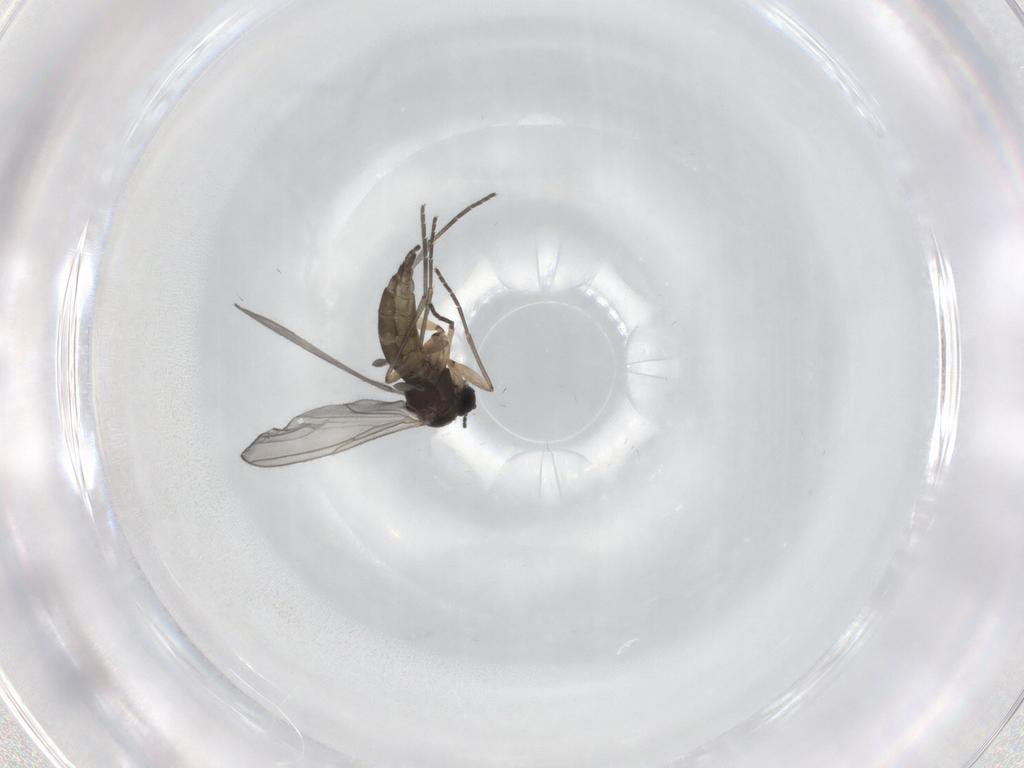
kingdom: Animalia
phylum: Arthropoda
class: Insecta
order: Diptera
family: Sciaridae
